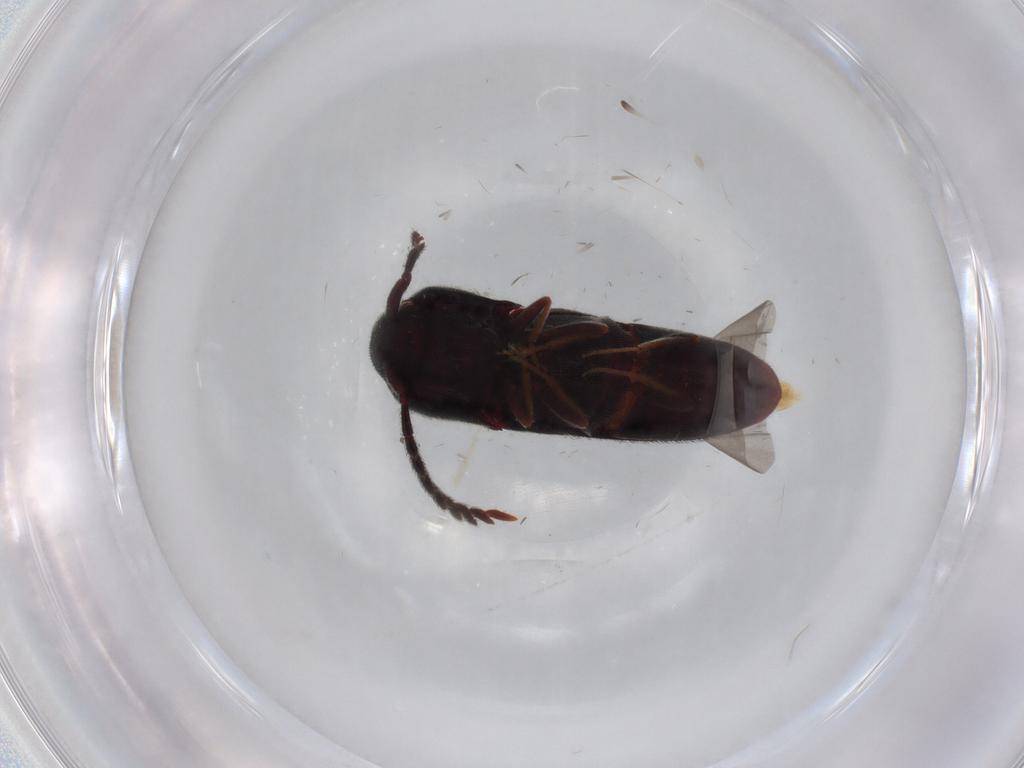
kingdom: Animalia
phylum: Arthropoda
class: Insecta
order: Coleoptera
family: Eucnemidae
